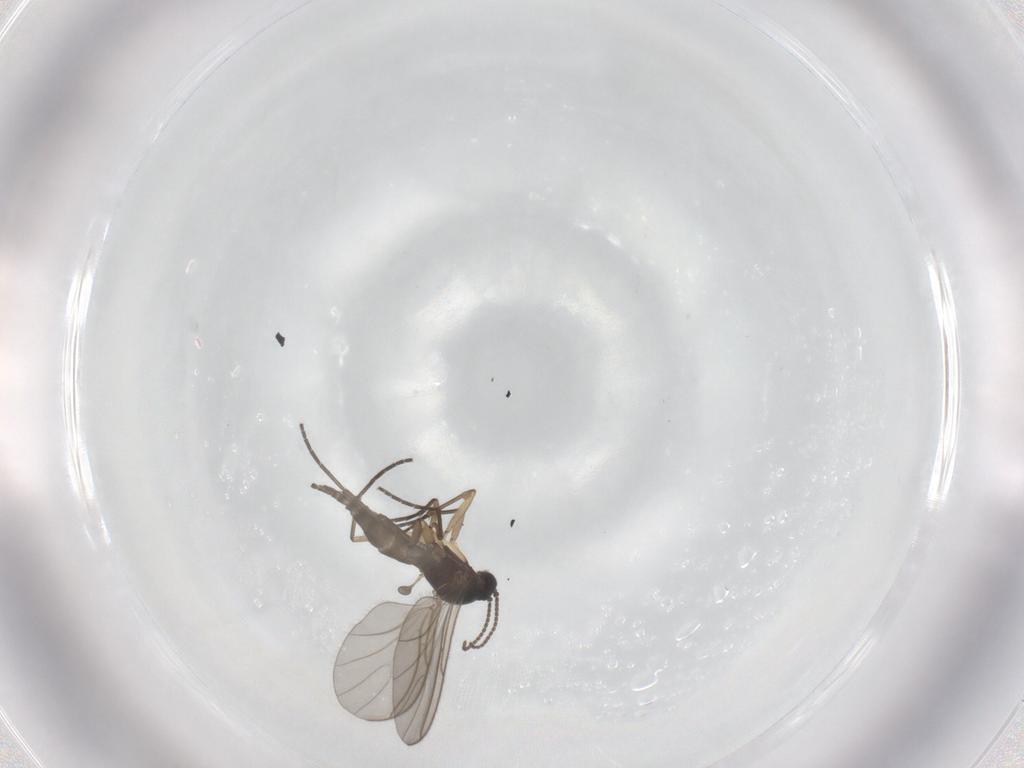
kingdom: Animalia
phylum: Arthropoda
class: Insecta
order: Diptera
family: Sciaridae
